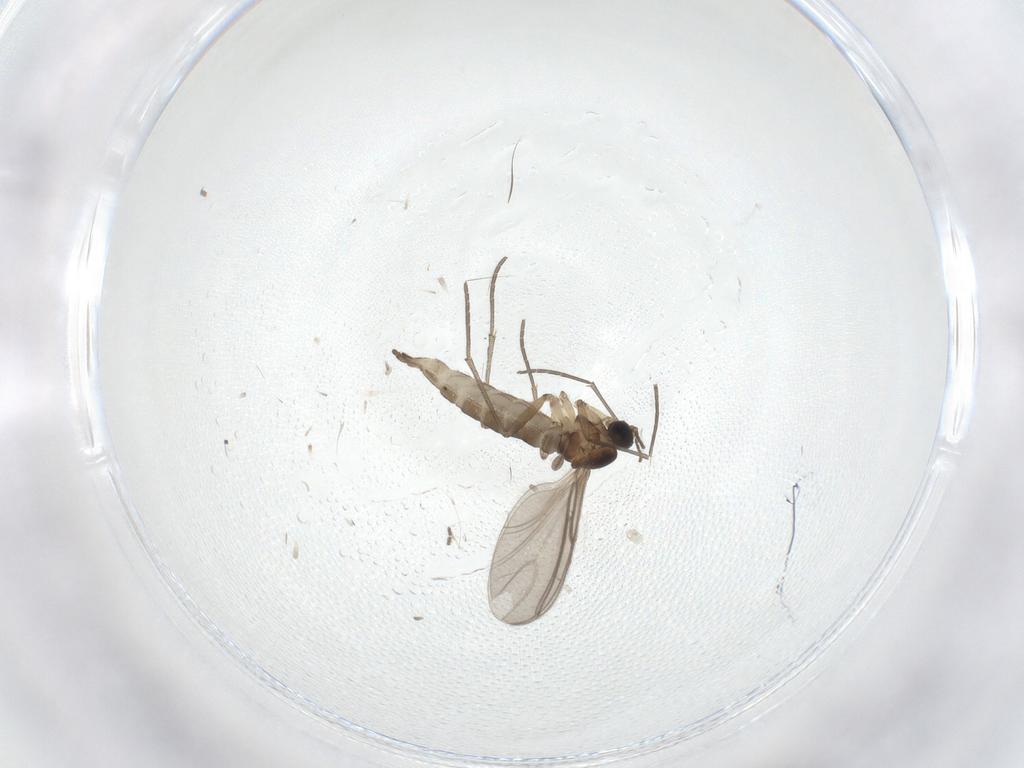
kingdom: Animalia
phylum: Arthropoda
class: Insecta
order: Diptera
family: Sciaridae
